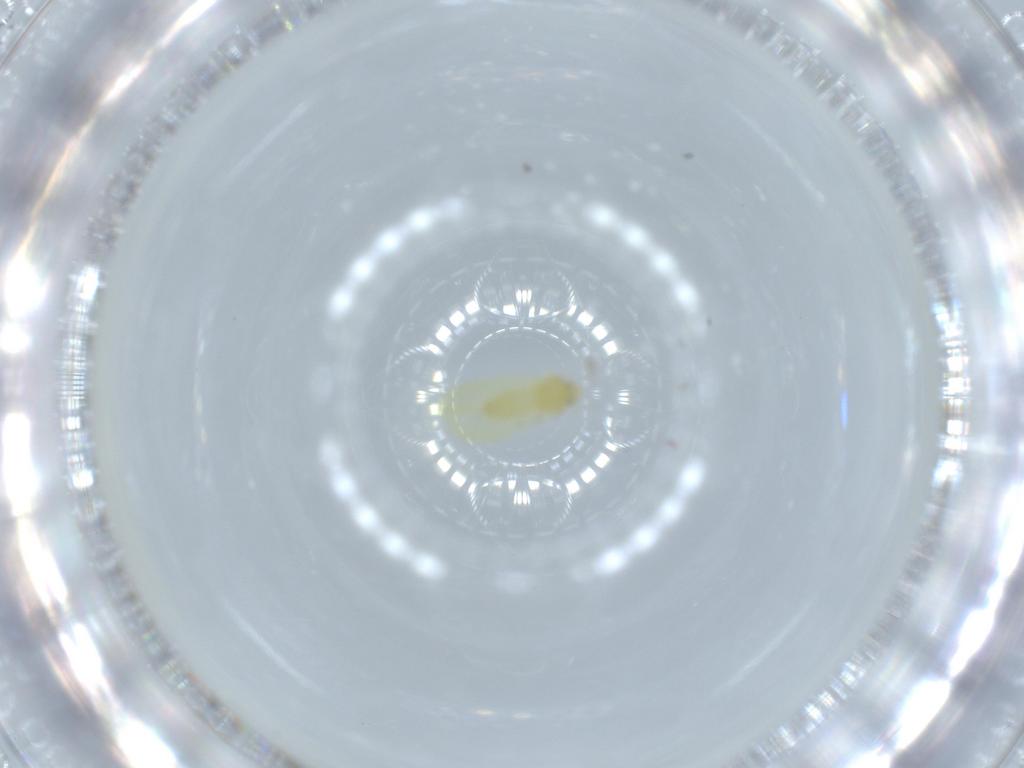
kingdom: Animalia
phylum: Arthropoda
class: Insecta
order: Hemiptera
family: Aleyrodidae
